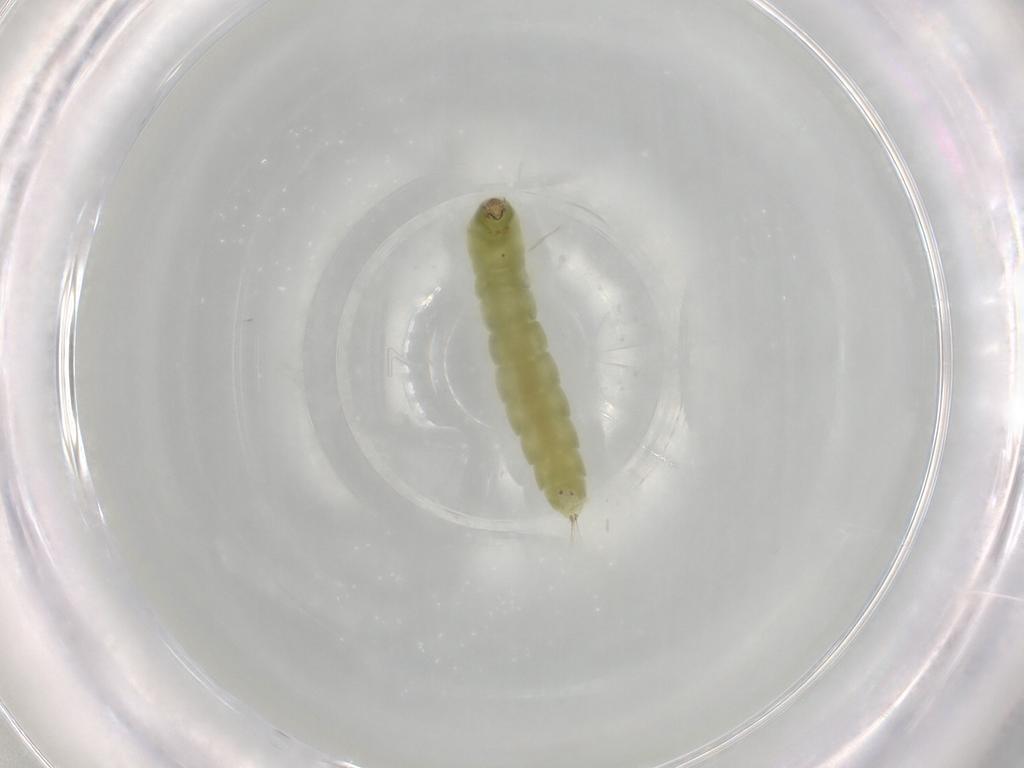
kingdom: Animalia
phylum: Arthropoda
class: Insecta
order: Diptera
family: Chironomidae
